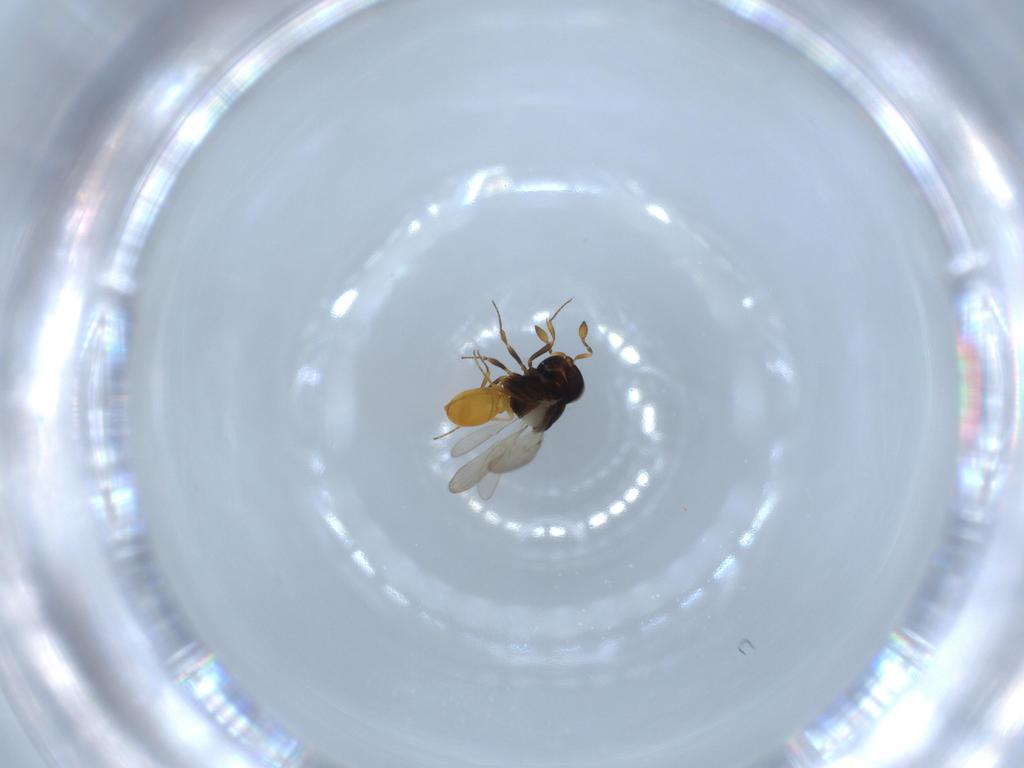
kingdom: Animalia
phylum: Arthropoda
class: Insecta
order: Hymenoptera
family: Scelionidae
